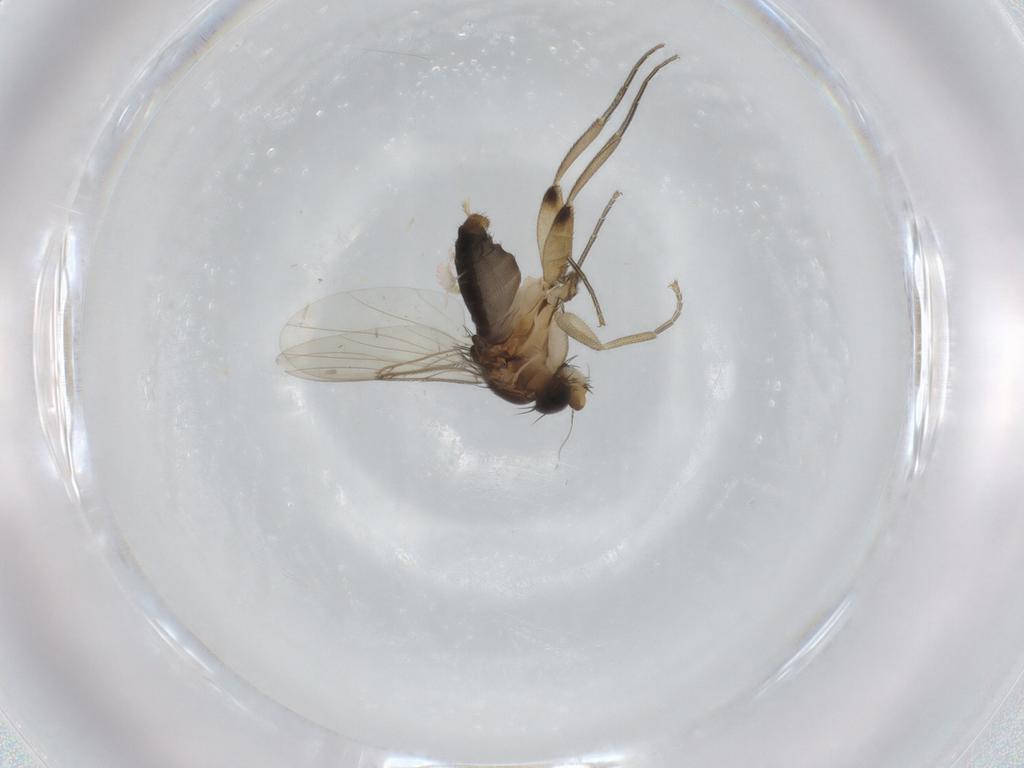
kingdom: Animalia
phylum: Arthropoda
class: Insecta
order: Diptera
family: Phoridae
